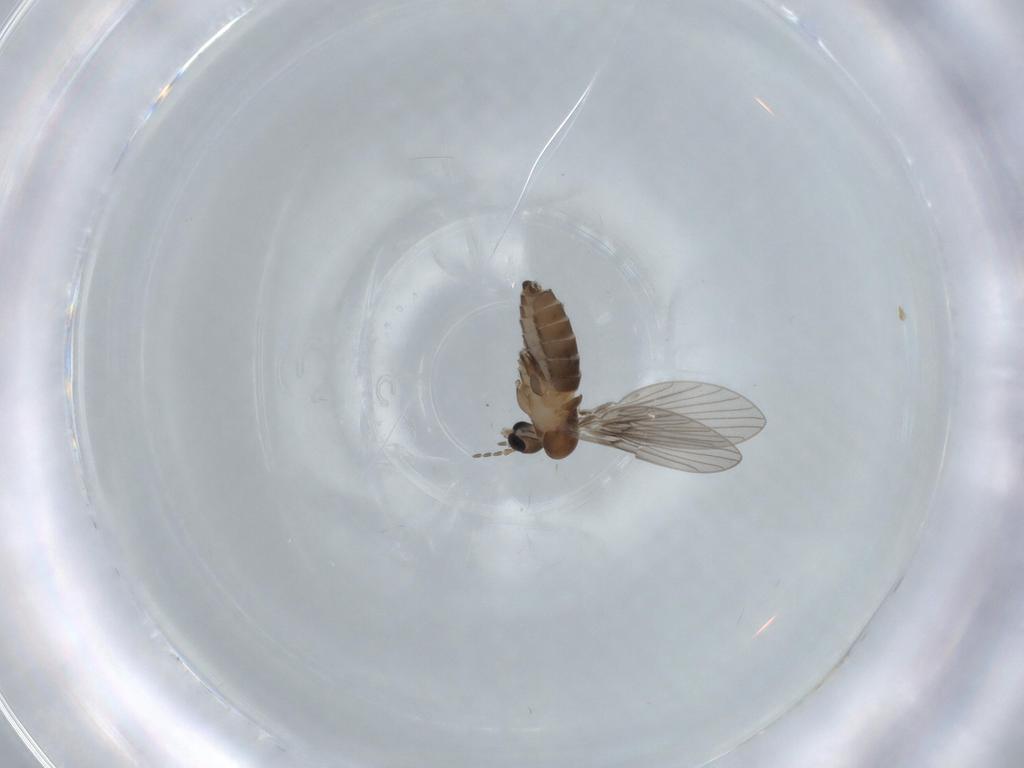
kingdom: Animalia
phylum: Arthropoda
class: Insecta
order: Diptera
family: Psychodidae
